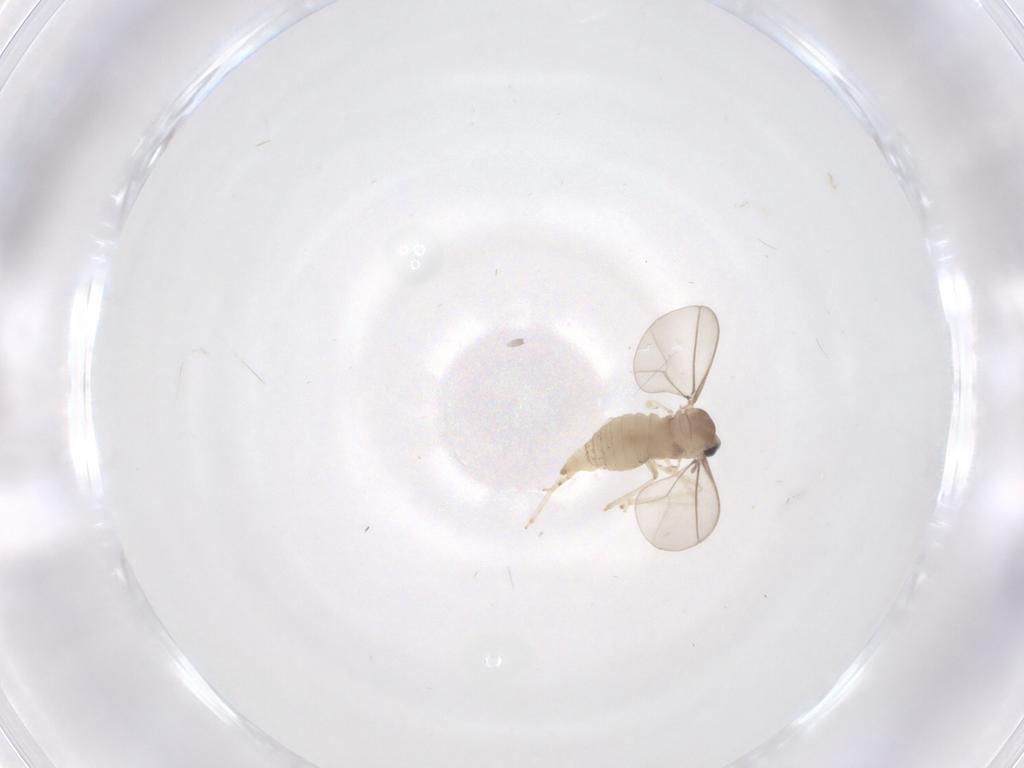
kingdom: Animalia
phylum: Arthropoda
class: Insecta
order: Diptera
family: Cecidomyiidae
